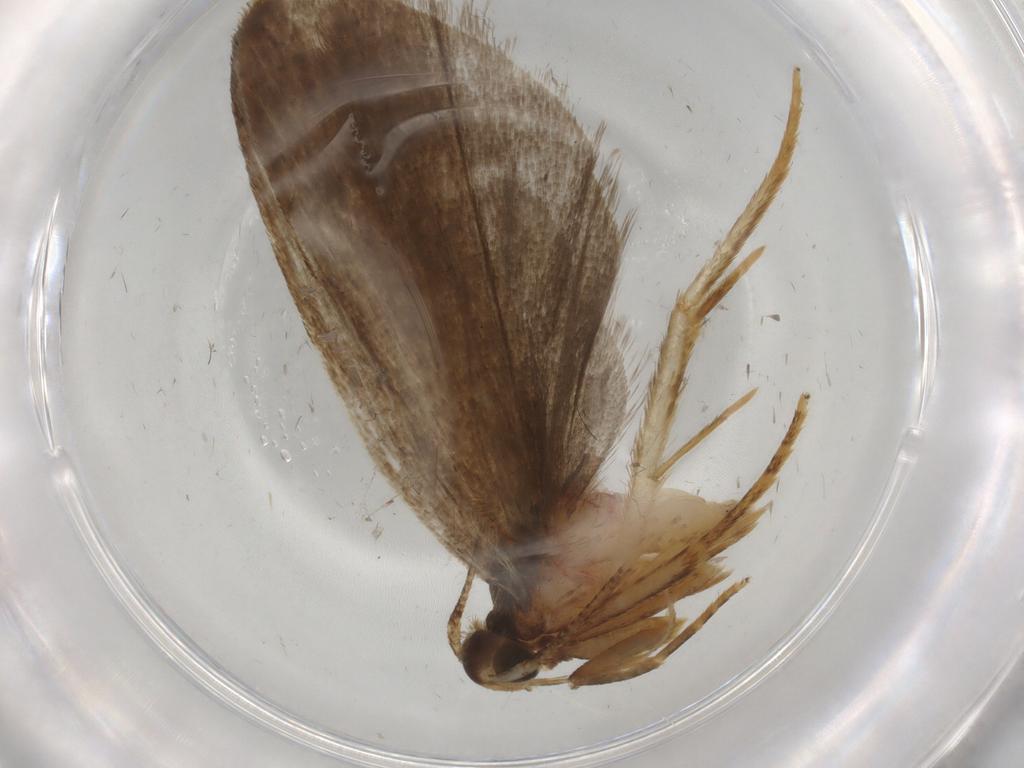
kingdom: Animalia
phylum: Arthropoda
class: Insecta
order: Lepidoptera
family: Autostichidae
